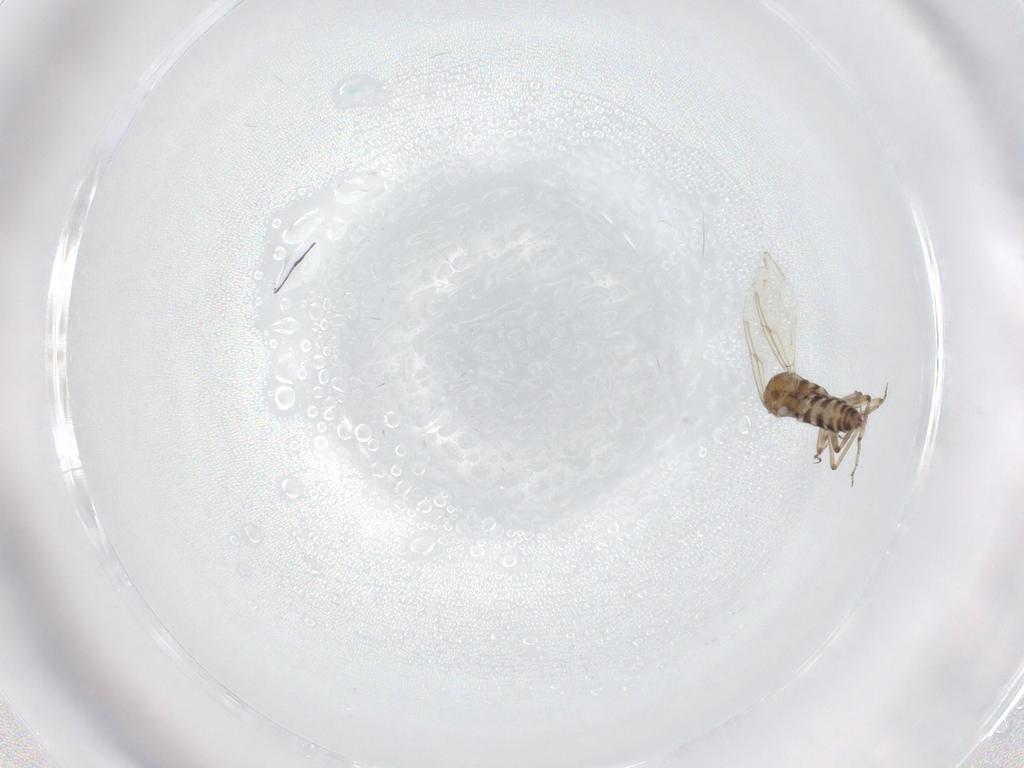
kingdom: Animalia
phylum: Arthropoda
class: Insecta
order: Diptera
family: Ceratopogonidae
